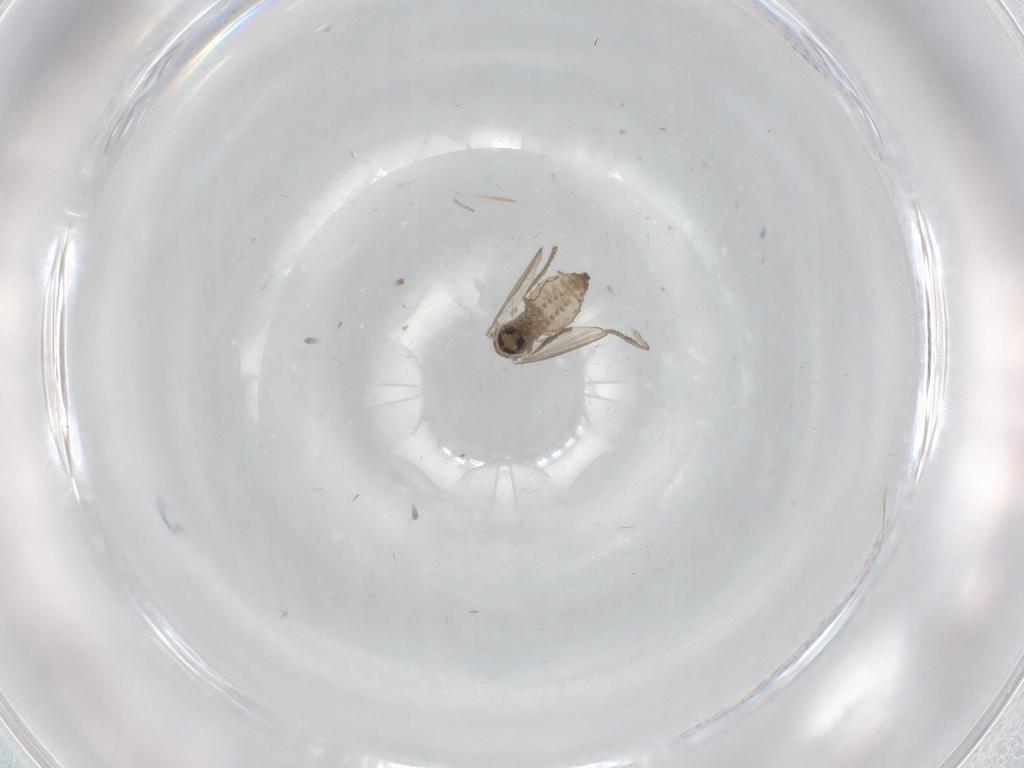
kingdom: Animalia
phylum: Arthropoda
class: Insecta
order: Diptera
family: Psychodidae
